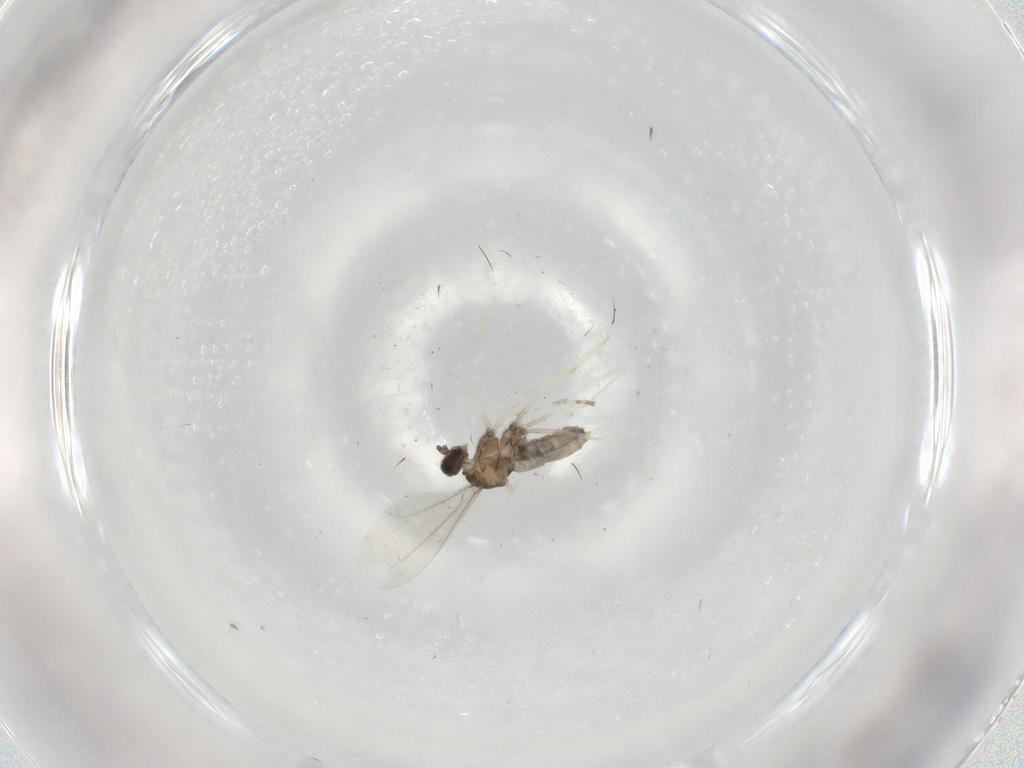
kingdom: Animalia
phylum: Arthropoda
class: Insecta
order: Diptera
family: Cecidomyiidae
